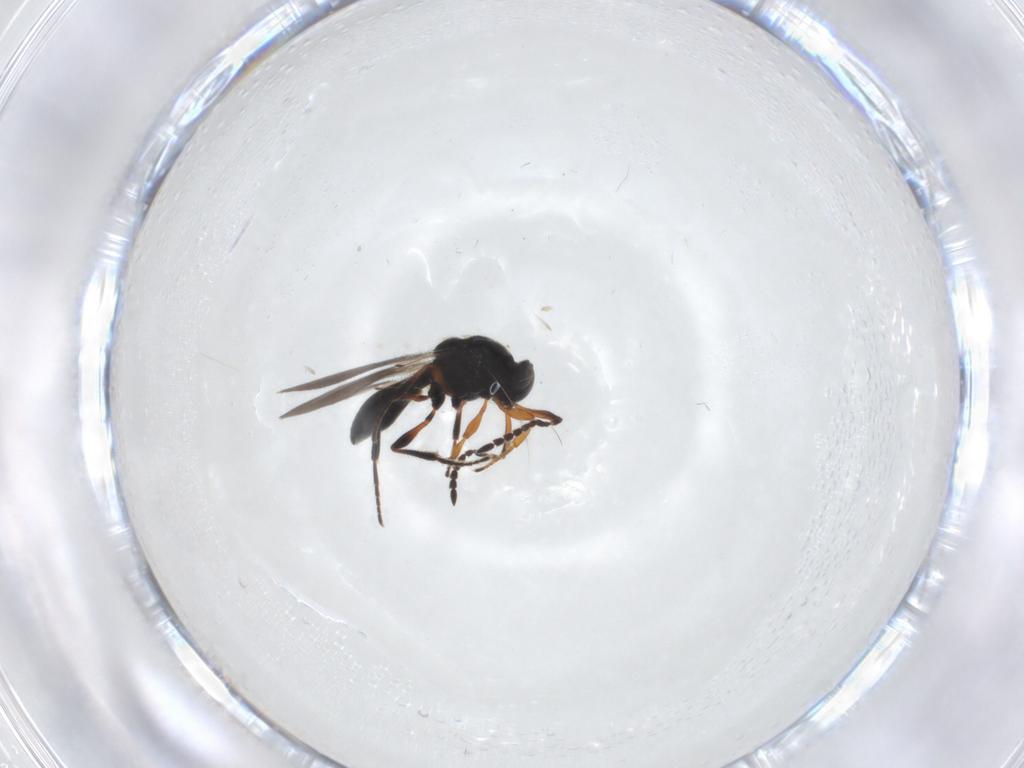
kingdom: Animalia
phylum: Arthropoda
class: Insecta
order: Hymenoptera
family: Platygastridae
